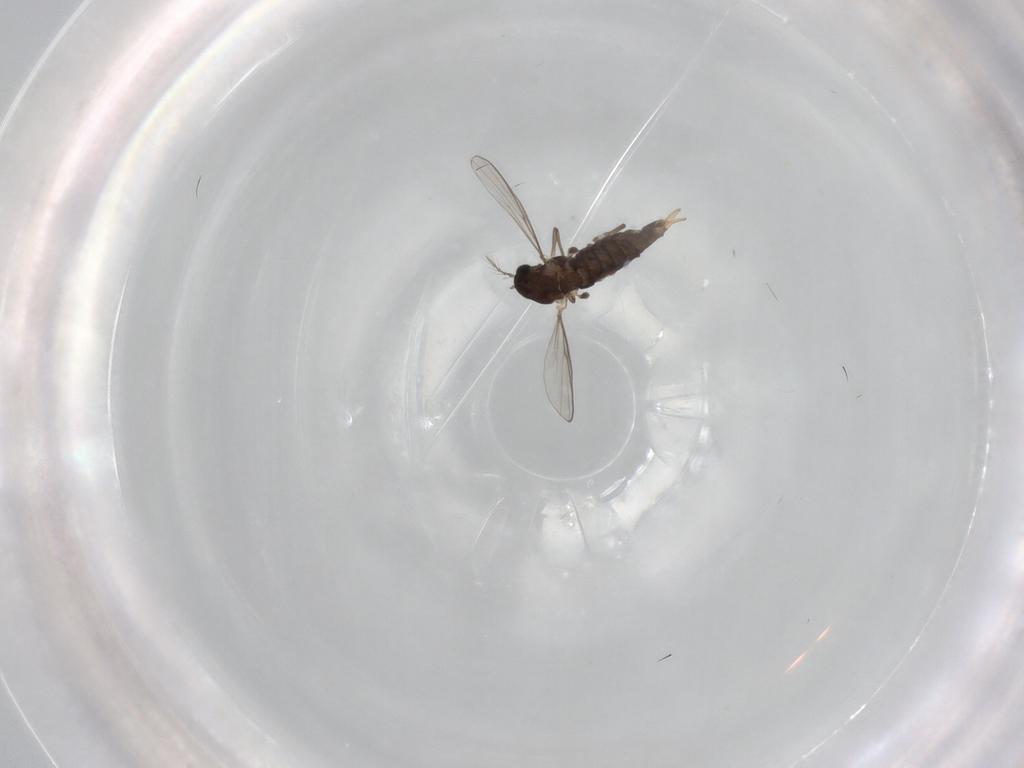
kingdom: Animalia
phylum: Arthropoda
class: Insecta
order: Diptera
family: Chironomidae
